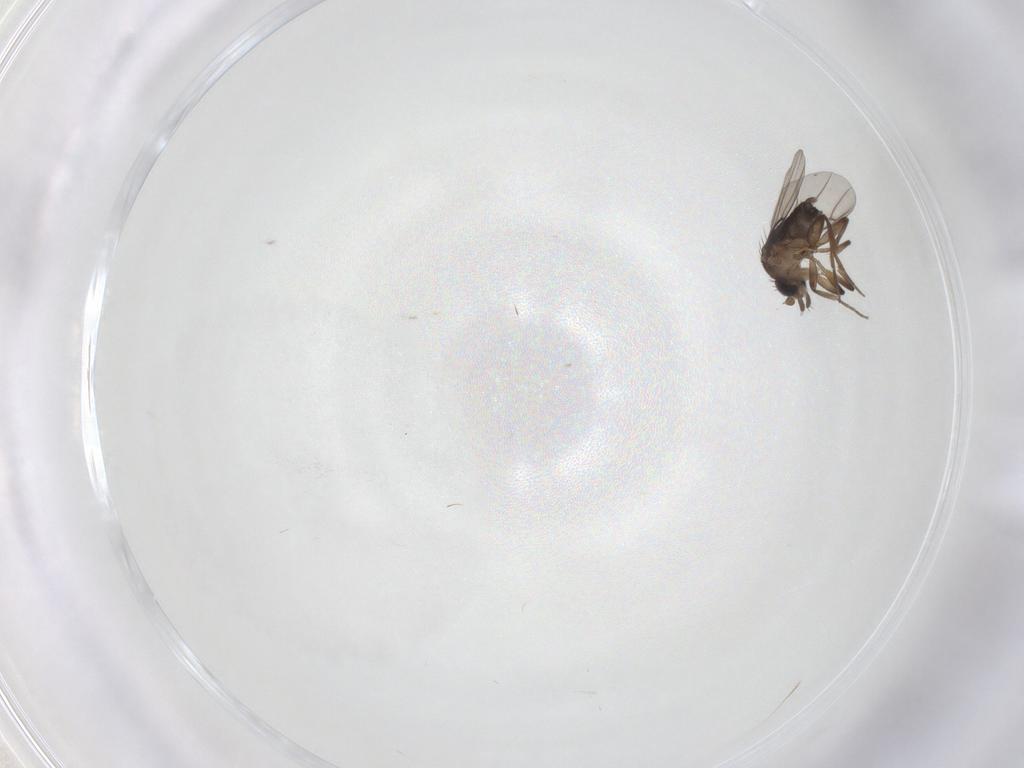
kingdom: Animalia
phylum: Arthropoda
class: Insecta
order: Diptera
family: Cecidomyiidae
